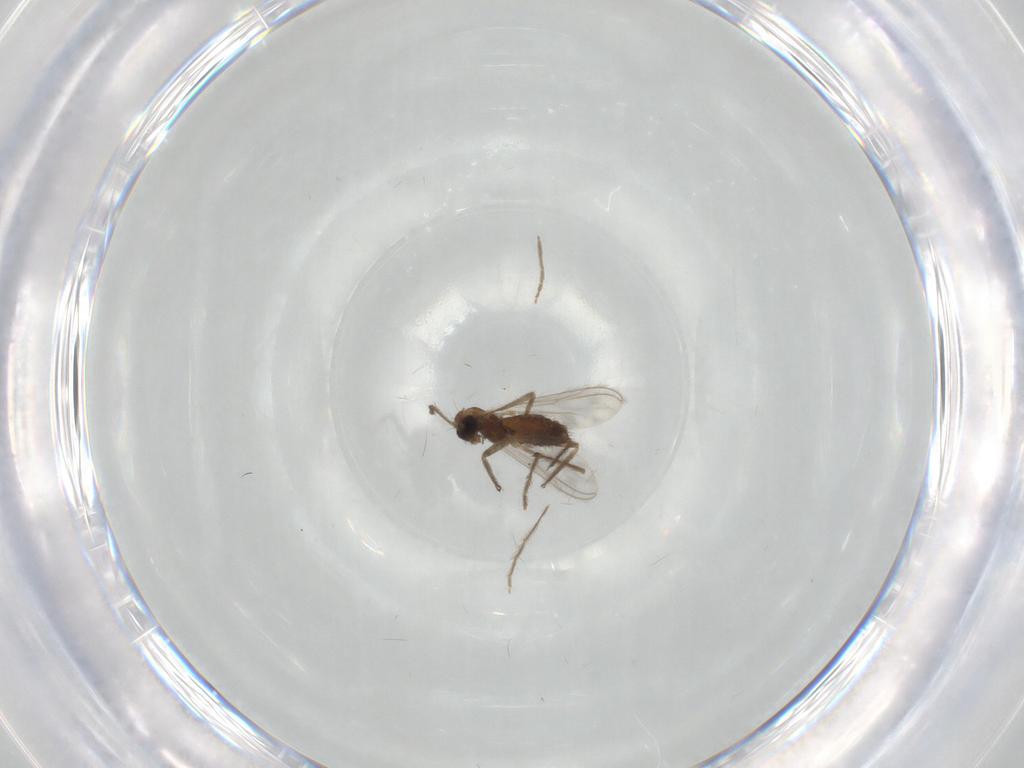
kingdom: Animalia
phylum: Arthropoda
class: Insecta
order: Diptera
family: Chironomidae
